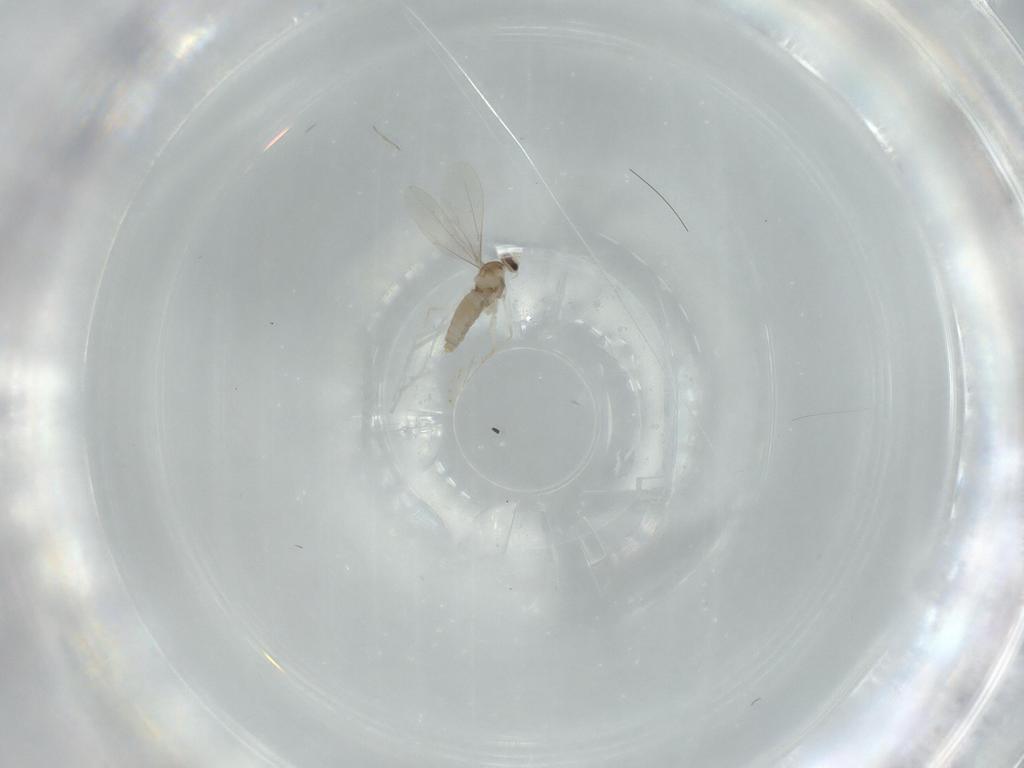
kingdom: Animalia
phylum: Arthropoda
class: Insecta
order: Diptera
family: Cecidomyiidae
